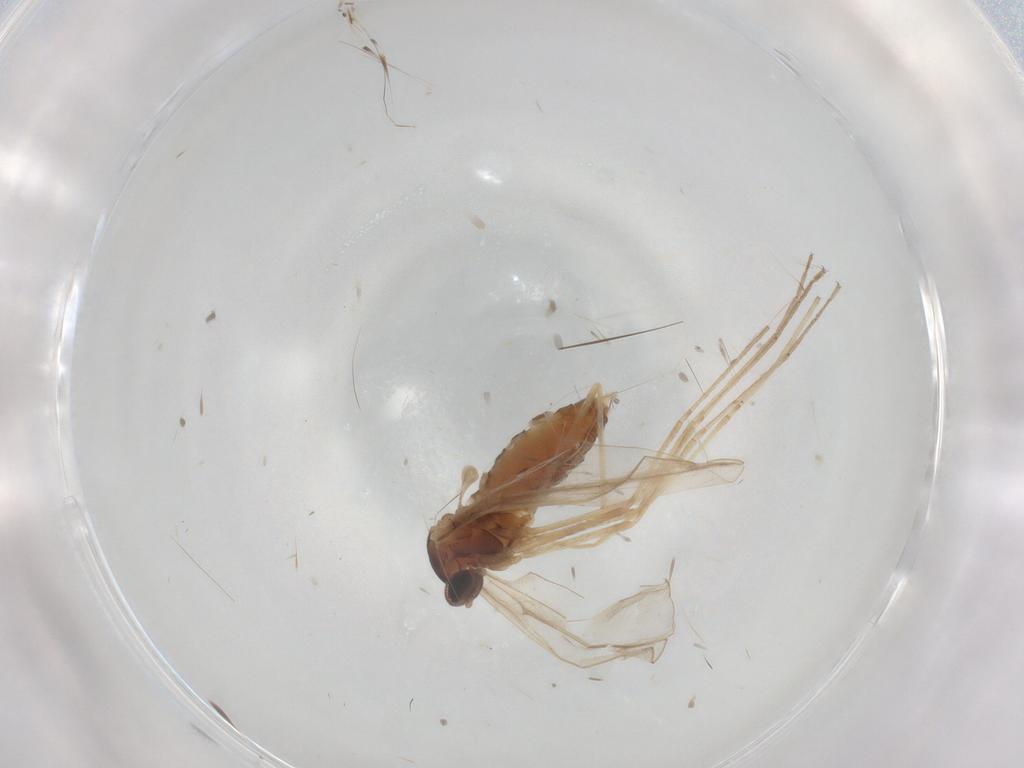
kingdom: Animalia
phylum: Arthropoda
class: Insecta
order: Diptera
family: Cecidomyiidae
